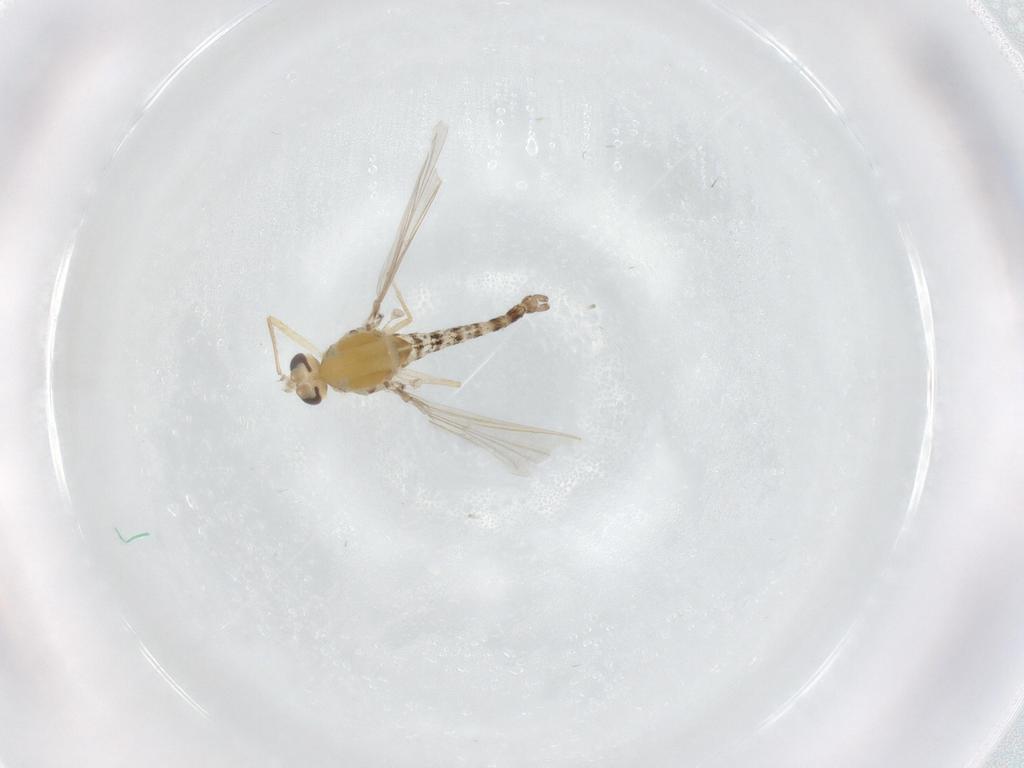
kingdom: Animalia
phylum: Arthropoda
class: Insecta
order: Diptera
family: Chironomidae
